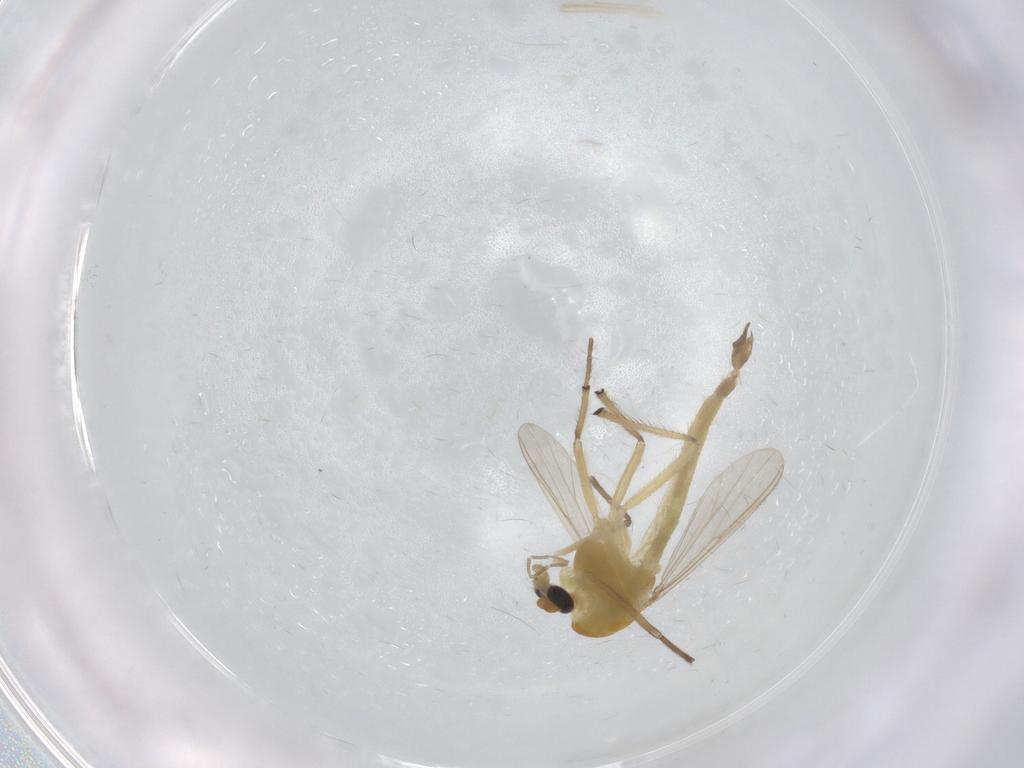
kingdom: Animalia
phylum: Arthropoda
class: Insecta
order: Diptera
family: Chironomidae
